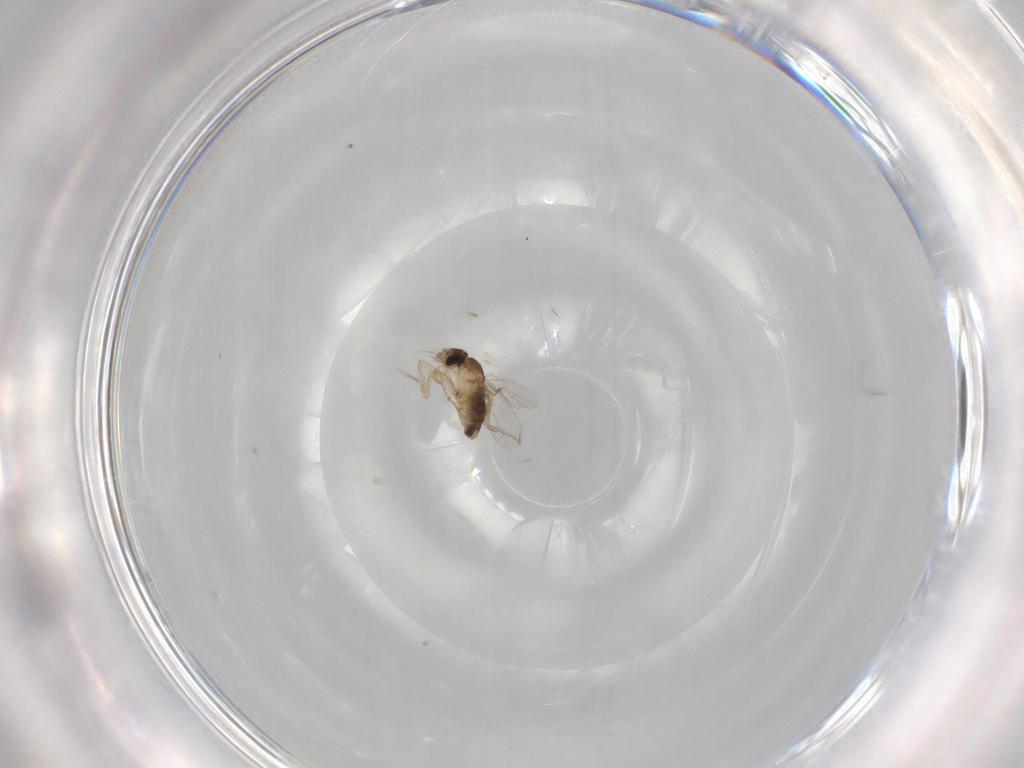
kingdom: Animalia
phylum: Arthropoda
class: Insecta
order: Diptera
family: Phoridae
